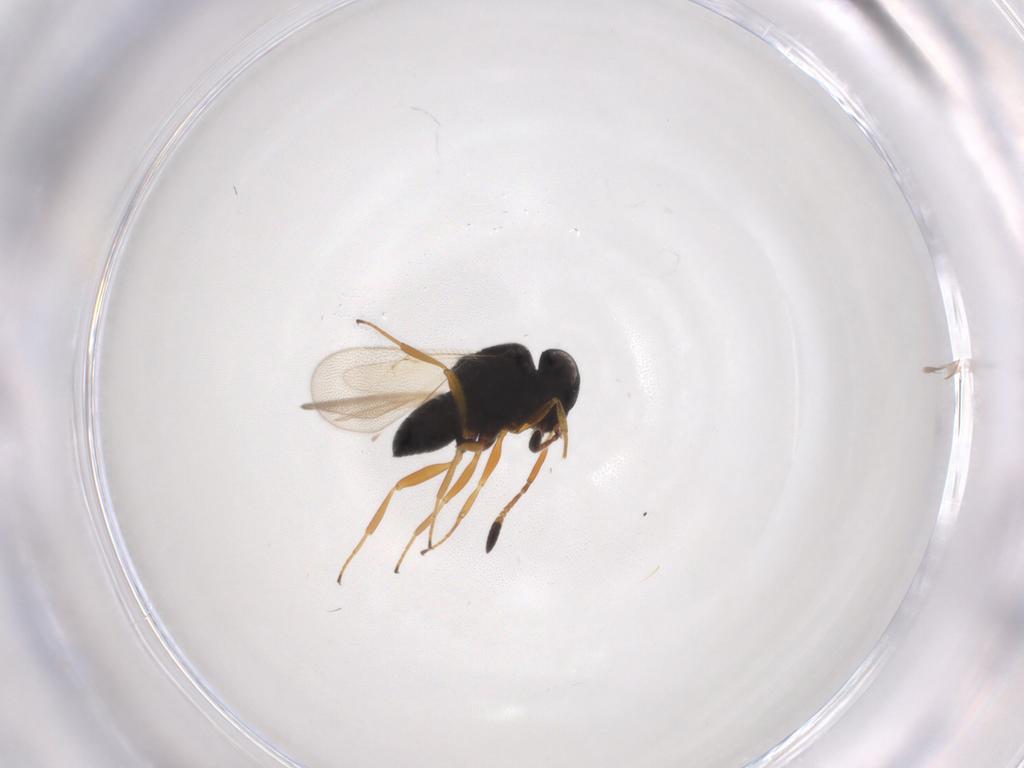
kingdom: Animalia
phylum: Arthropoda
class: Insecta
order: Hymenoptera
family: Scelionidae
